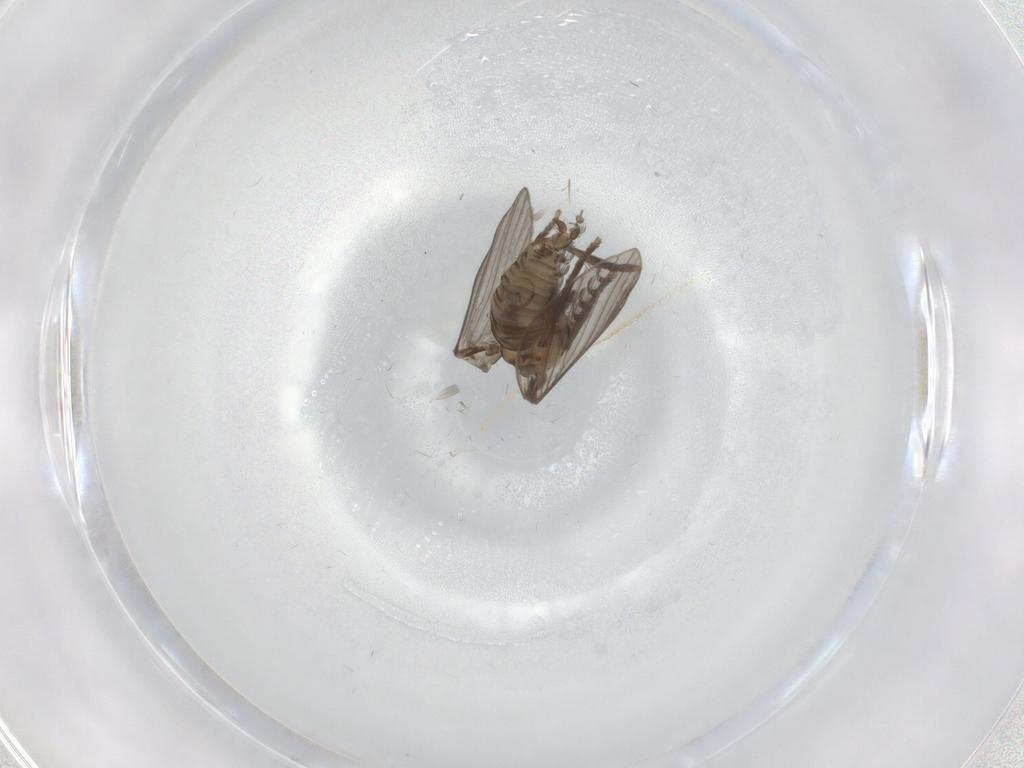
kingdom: Animalia
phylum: Arthropoda
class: Insecta
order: Diptera
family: Psychodidae
